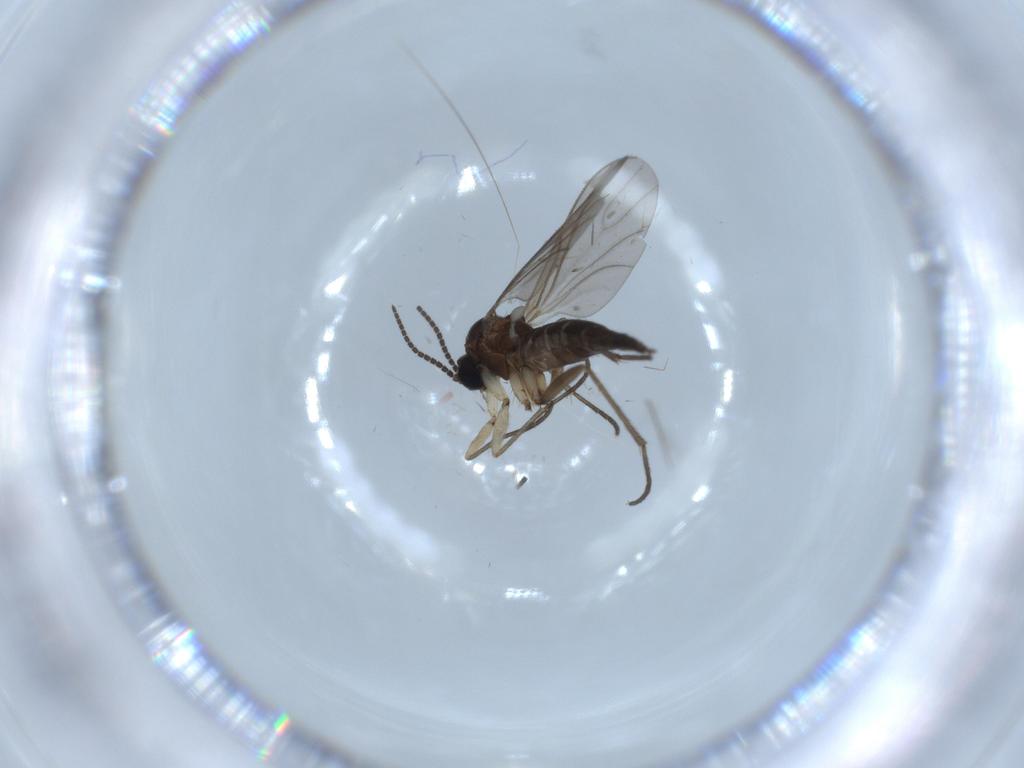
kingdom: Animalia
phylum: Arthropoda
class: Insecta
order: Diptera
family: Sciaridae
